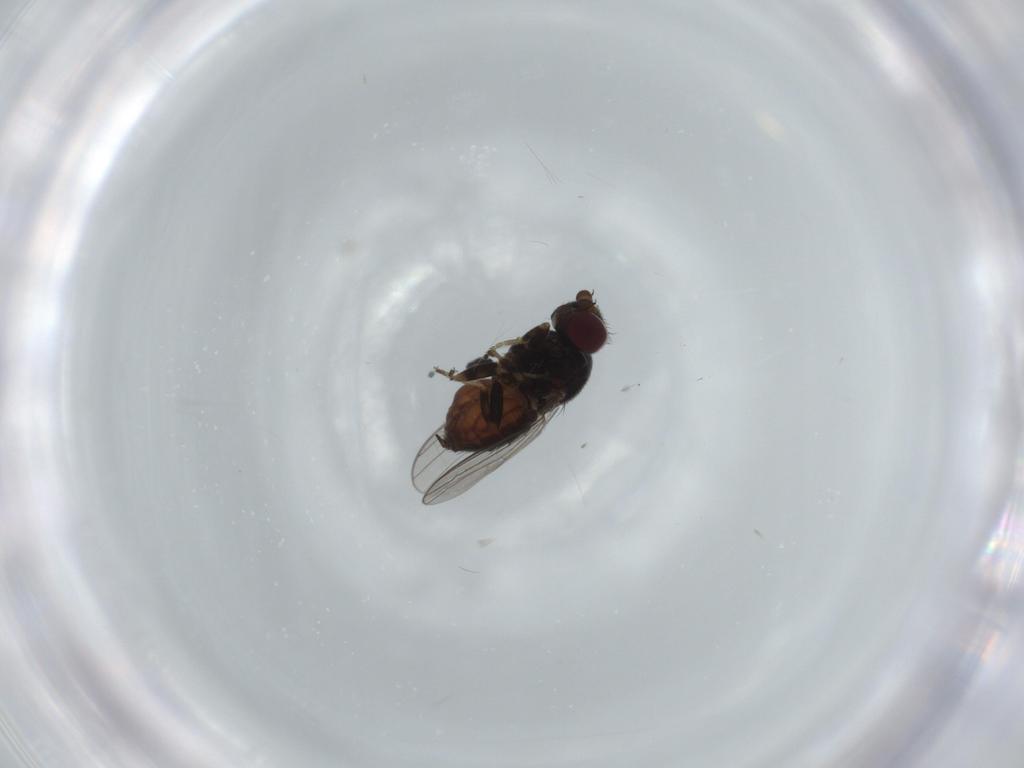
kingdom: Animalia
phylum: Arthropoda
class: Insecta
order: Diptera
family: Chloropidae
